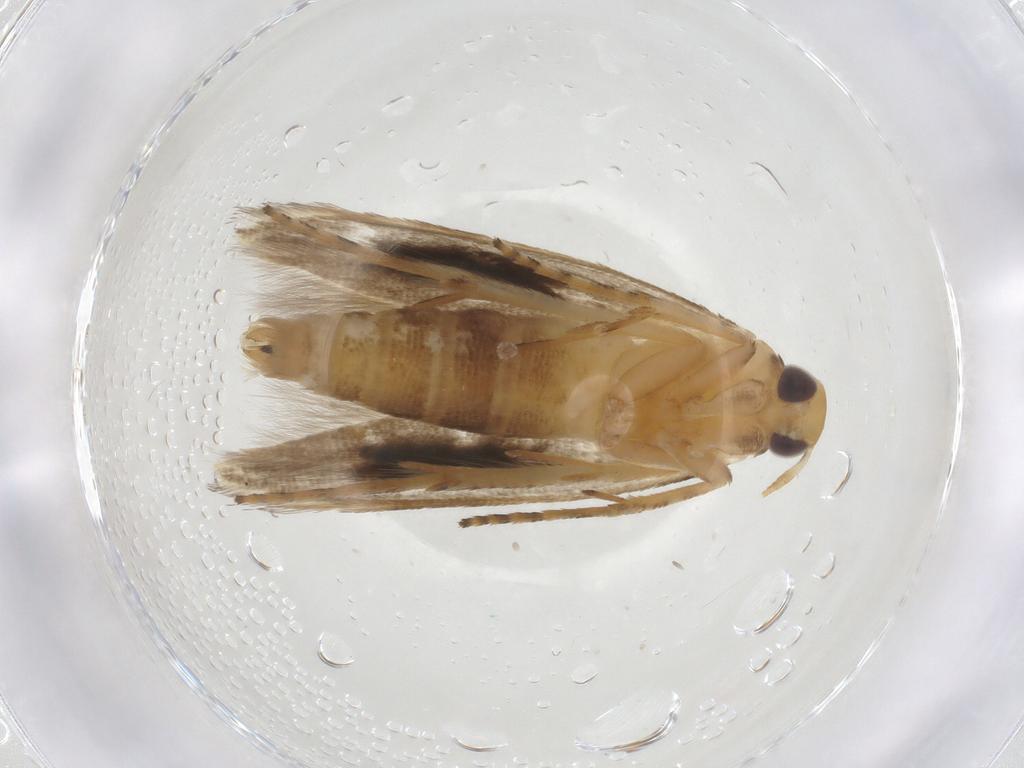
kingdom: Animalia
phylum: Arthropoda
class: Insecta
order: Lepidoptera
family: Momphidae
